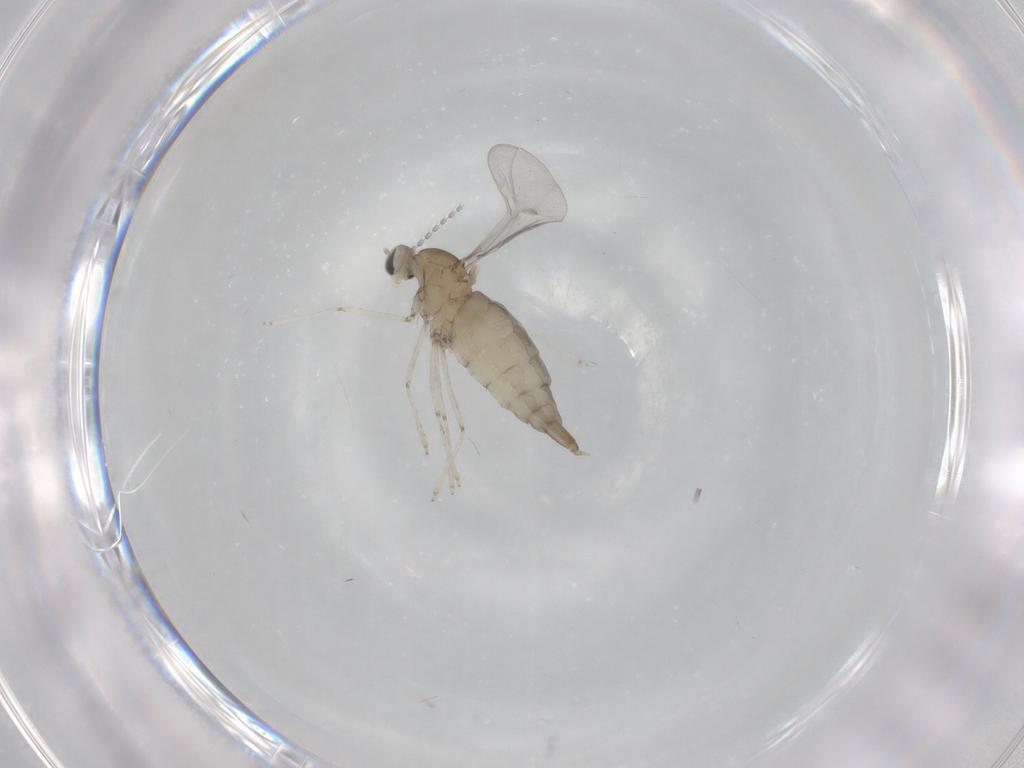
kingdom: Animalia
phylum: Arthropoda
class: Insecta
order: Diptera
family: Cecidomyiidae
